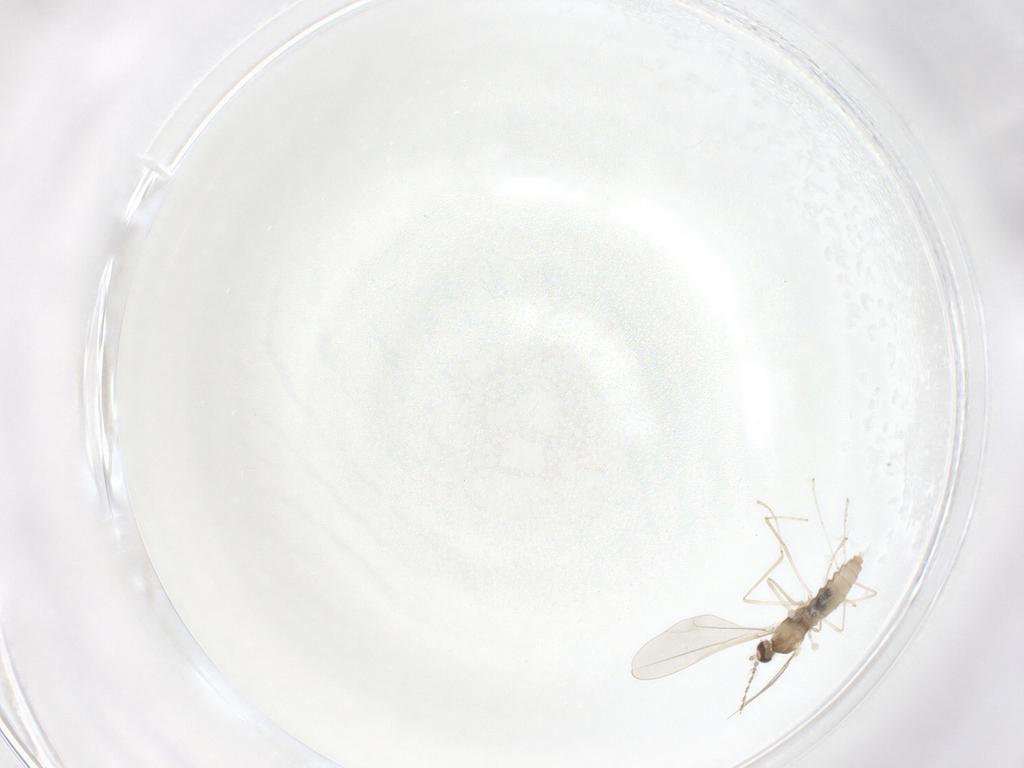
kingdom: Animalia
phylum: Arthropoda
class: Insecta
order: Diptera
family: Cecidomyiidae
